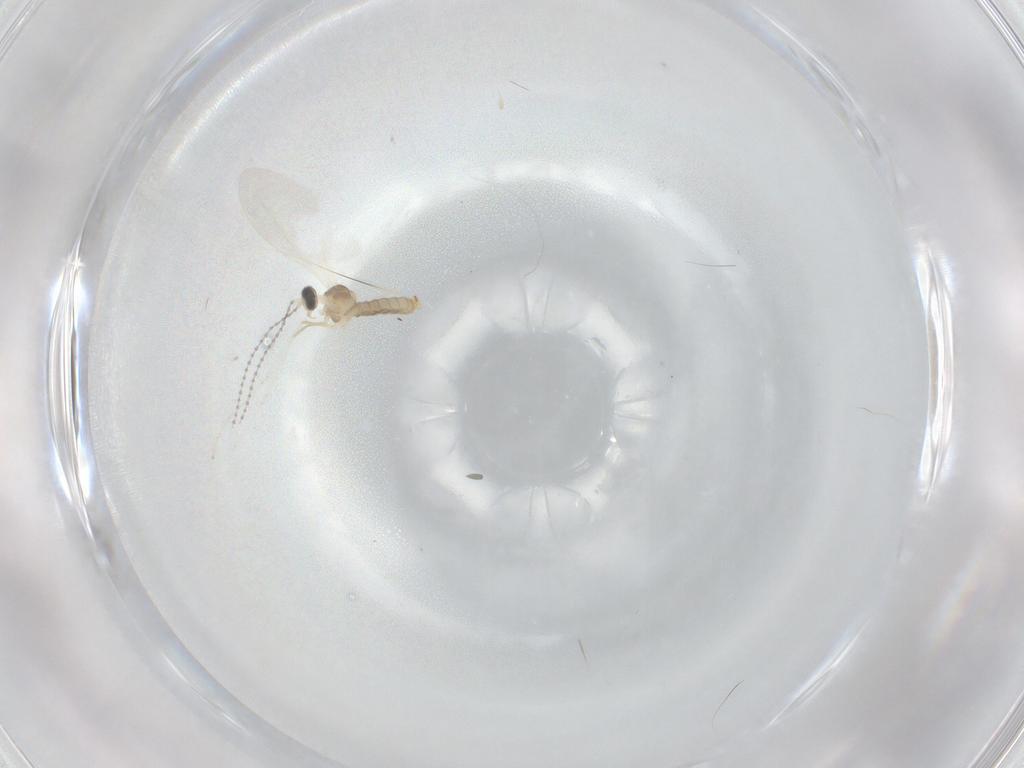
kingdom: Animalia
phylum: Arthropoda
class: Insecta
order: Diptera
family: Cecidomyiidae
